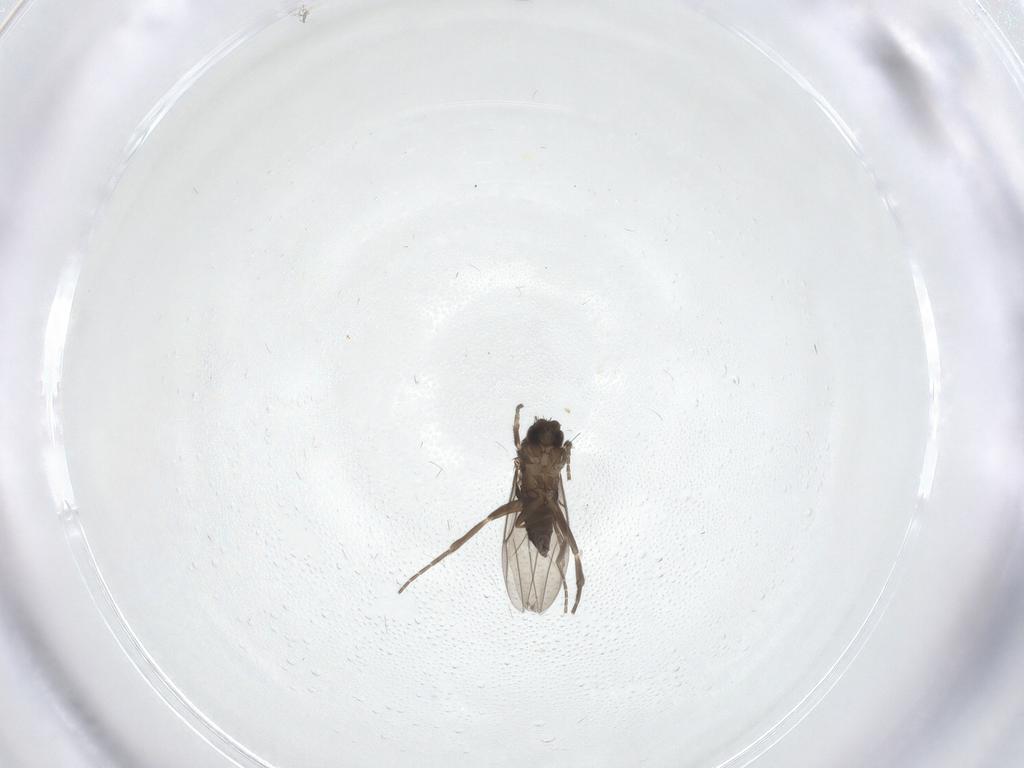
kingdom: Animalia
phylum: Arthropoda
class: Insecta
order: Diptera
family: Chironomidae
